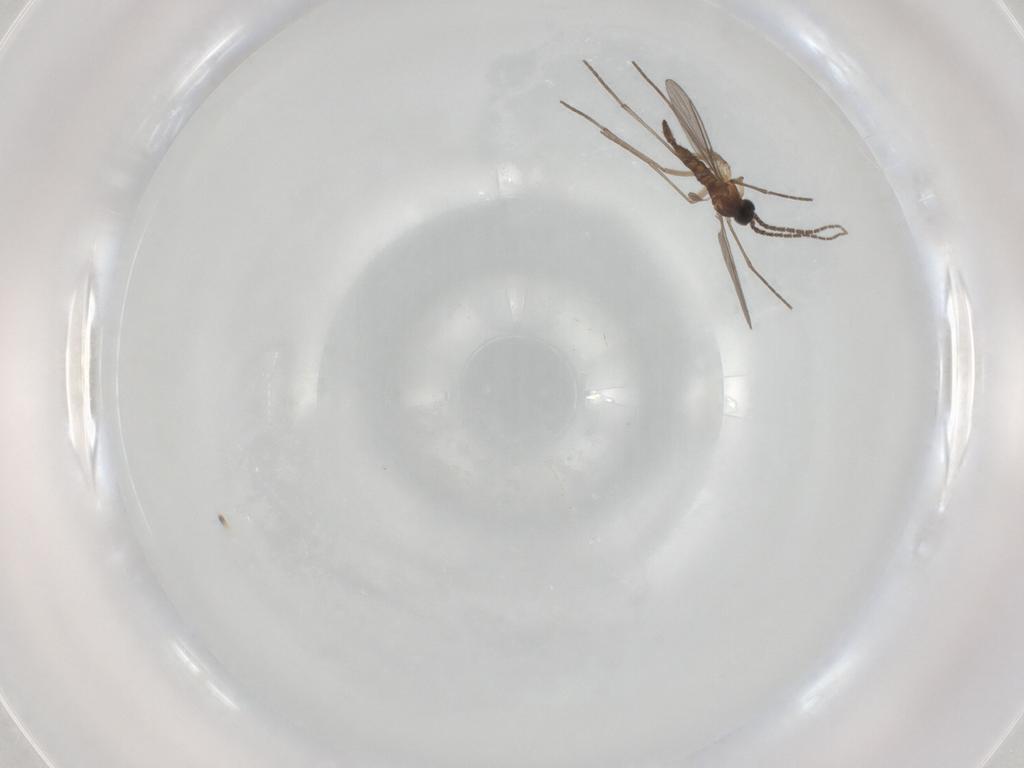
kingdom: Animalia
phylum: Arthropoda
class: Insecta
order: Diptera
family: Sciaridae
